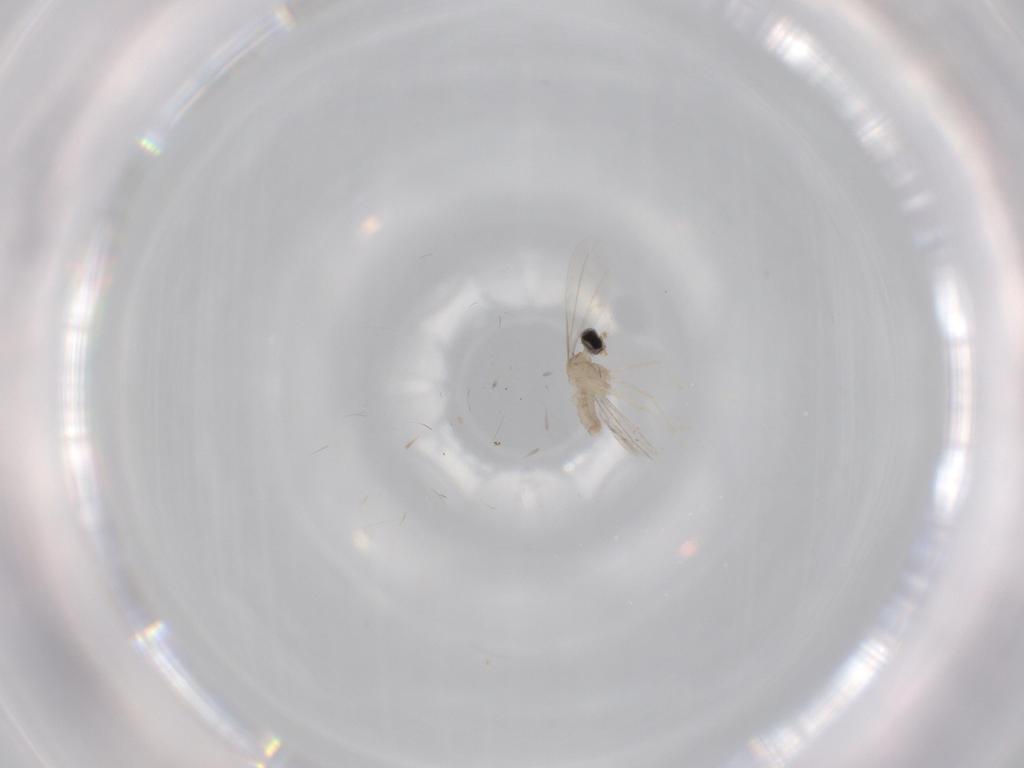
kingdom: Animalia
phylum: Arthropoda
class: Insecta
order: Diptera
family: Cecidomyiidae
